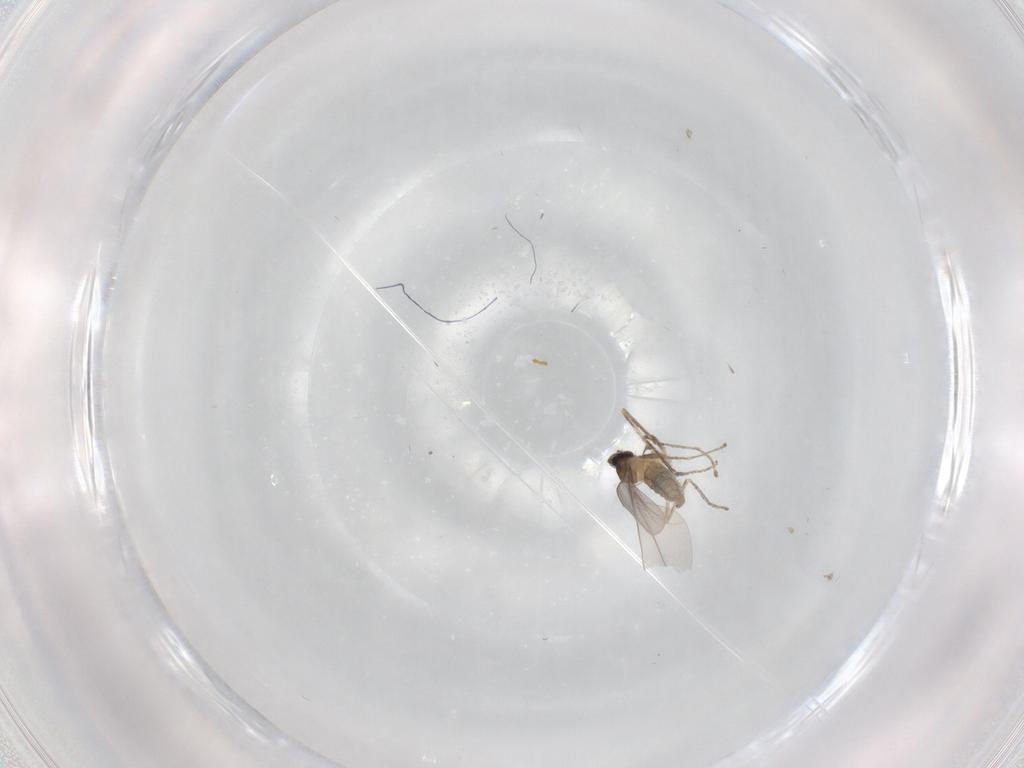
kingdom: Animalia
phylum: Arthropoda
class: Insecta
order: Diptera
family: Cecidomyiidae
